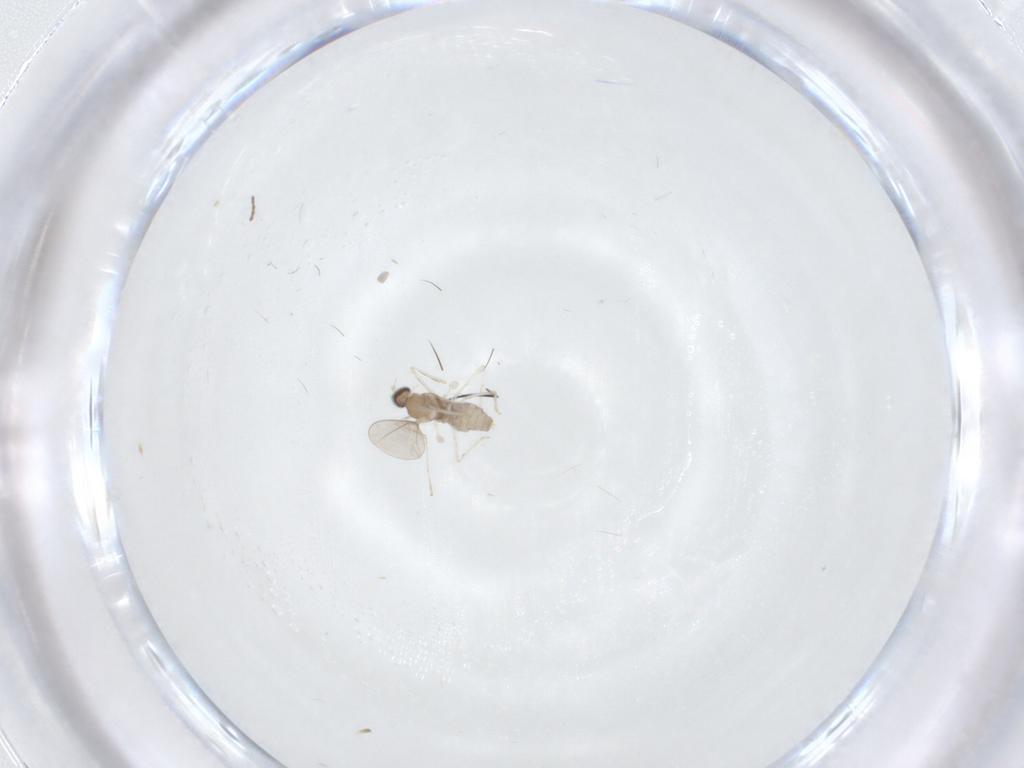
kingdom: Animalia
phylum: Arthropoda
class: Insecta
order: Diptera
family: Cecidomyiidae
